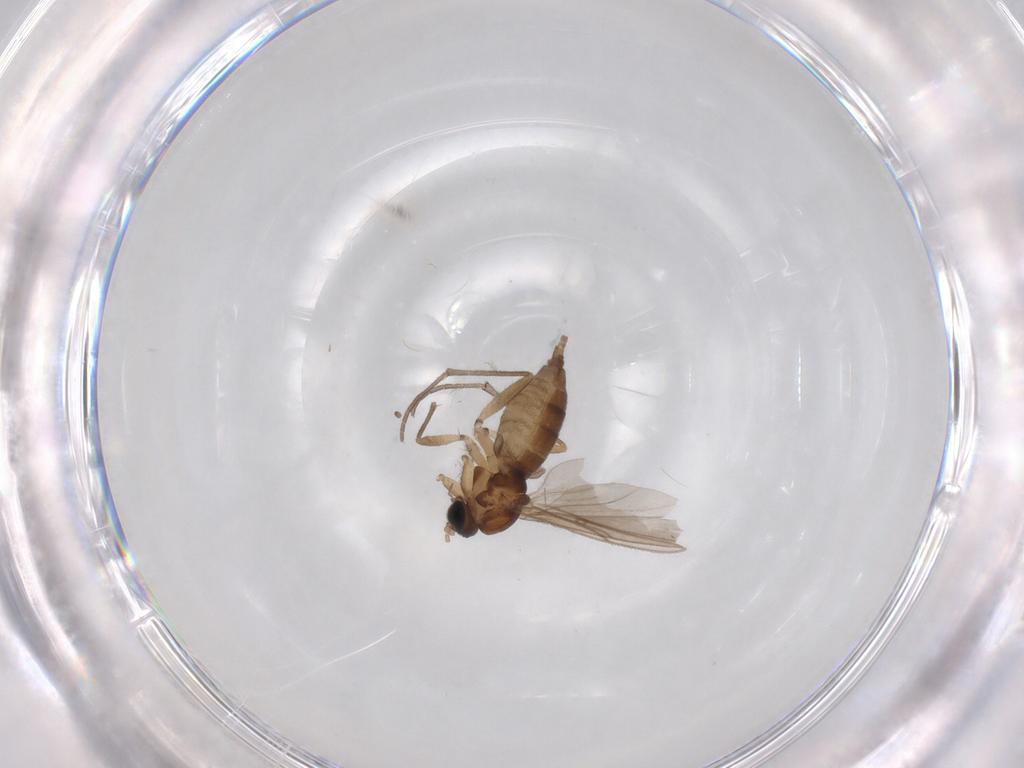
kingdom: Animalia
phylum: Arthropoda
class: Insecta
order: Diptera
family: Sciaridae
